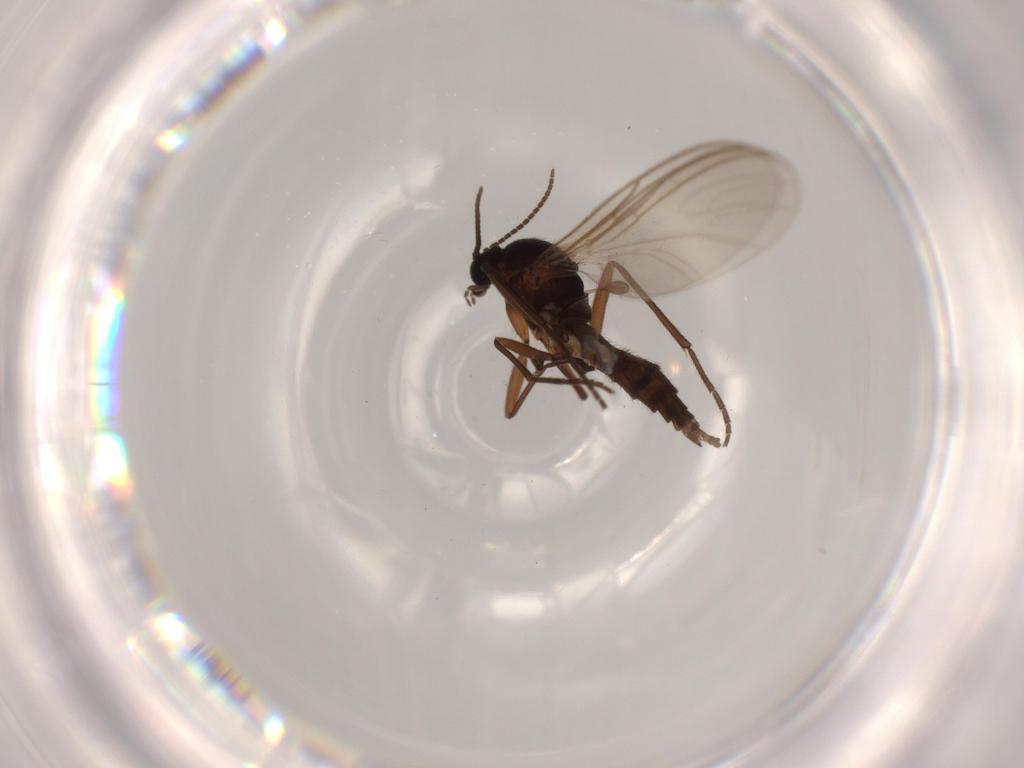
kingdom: Animalia
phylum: Arthropoda
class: Insecta
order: Diptera
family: Sciaridae
